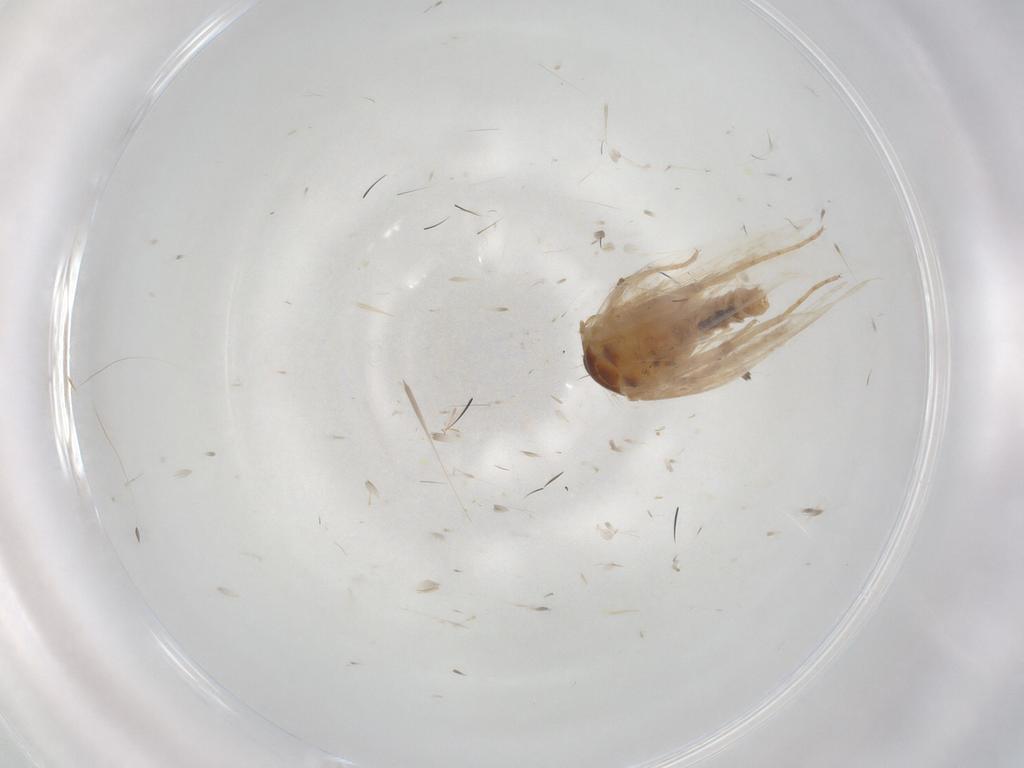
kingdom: Animalia
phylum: Arthropoda
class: Insecta
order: Lepidoptera
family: Gelechiidae
